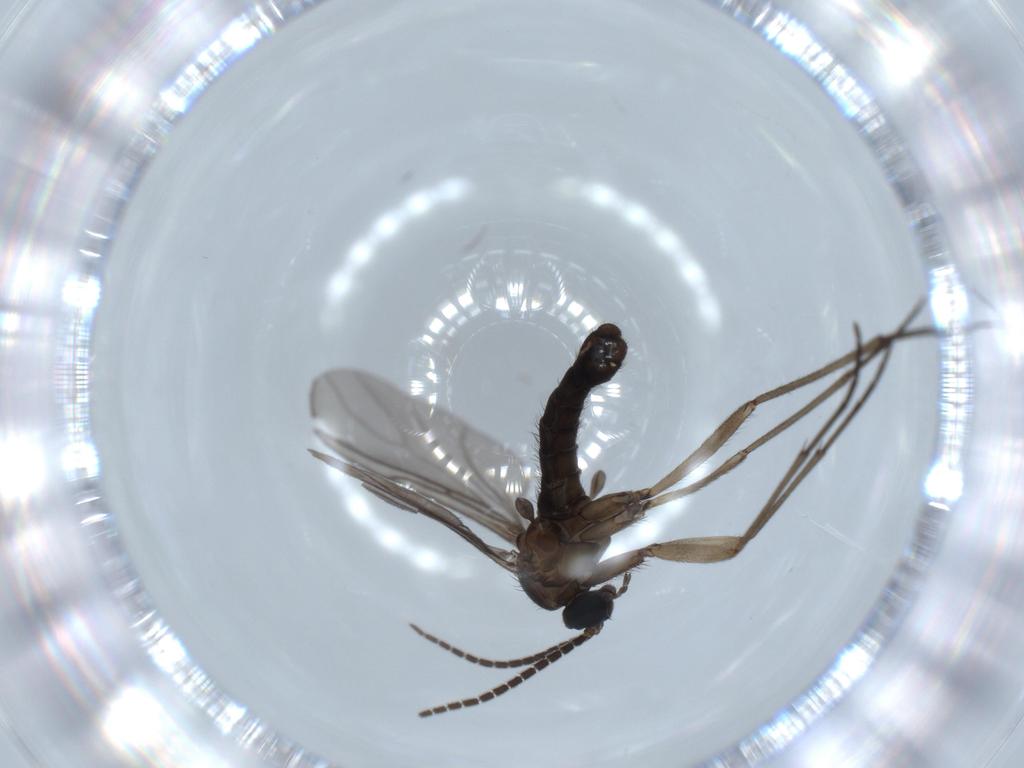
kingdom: Animalia
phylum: Arthropoda
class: Insecta
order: Diptera
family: Sciaridae
